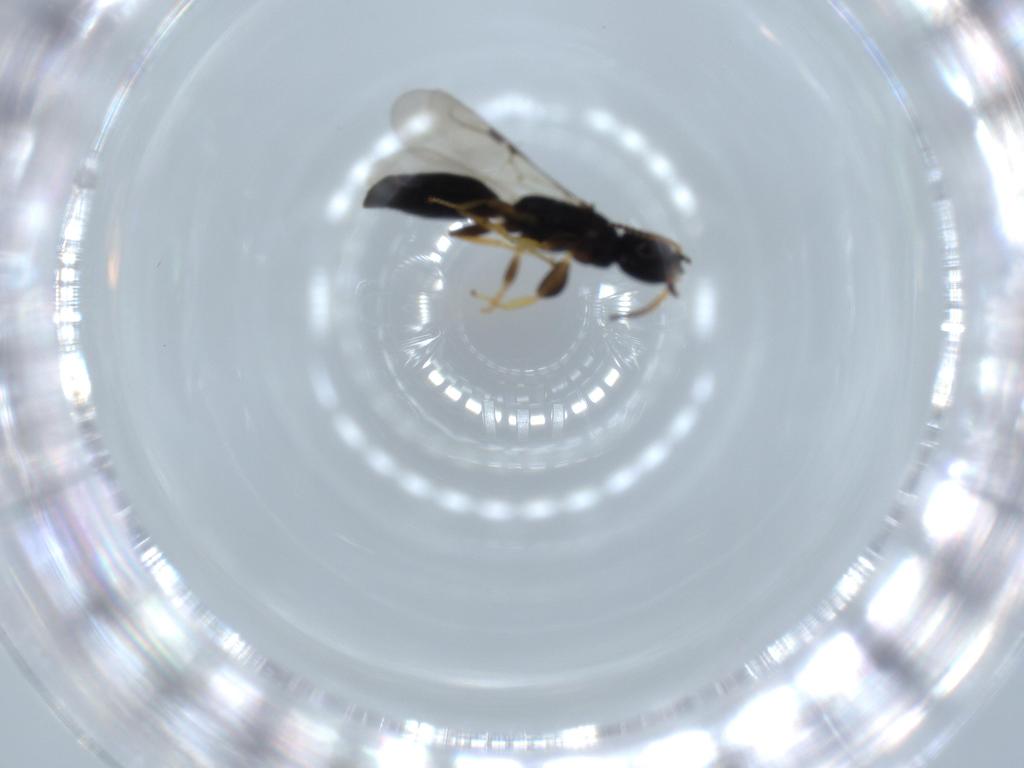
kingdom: Animalia
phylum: Arthropoda
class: Insecta
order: Hymenoptera
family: Bethylidae
